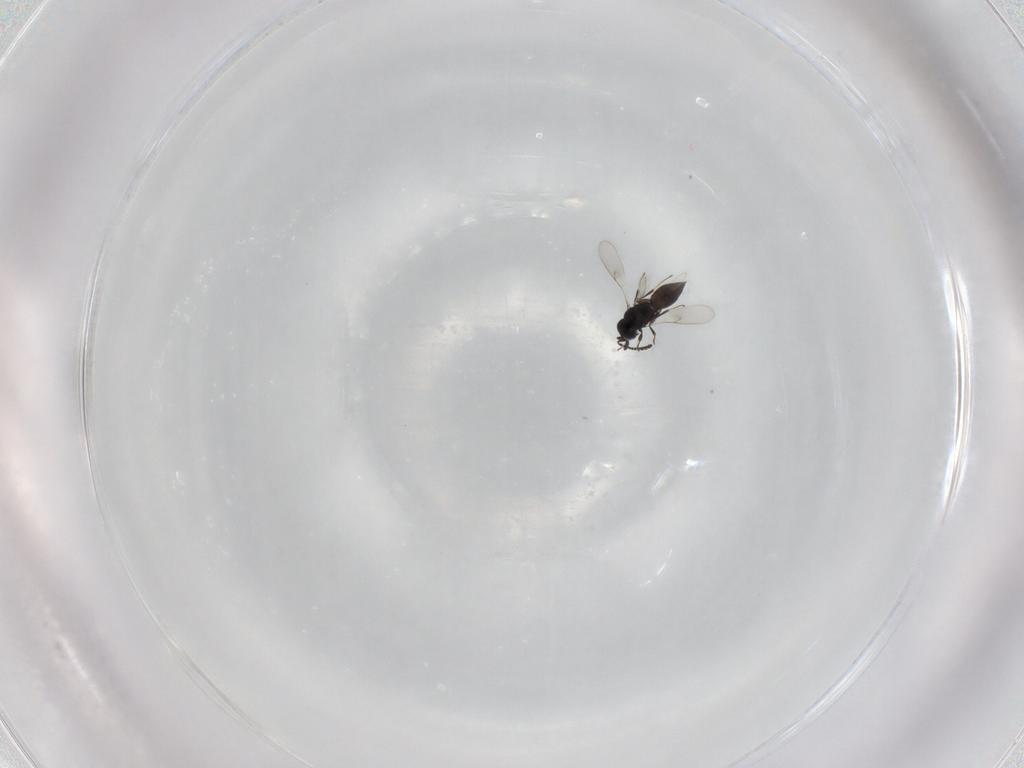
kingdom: Animalia
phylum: Arthropoda
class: Insecta
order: Hymenoptera
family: Scelionidae
